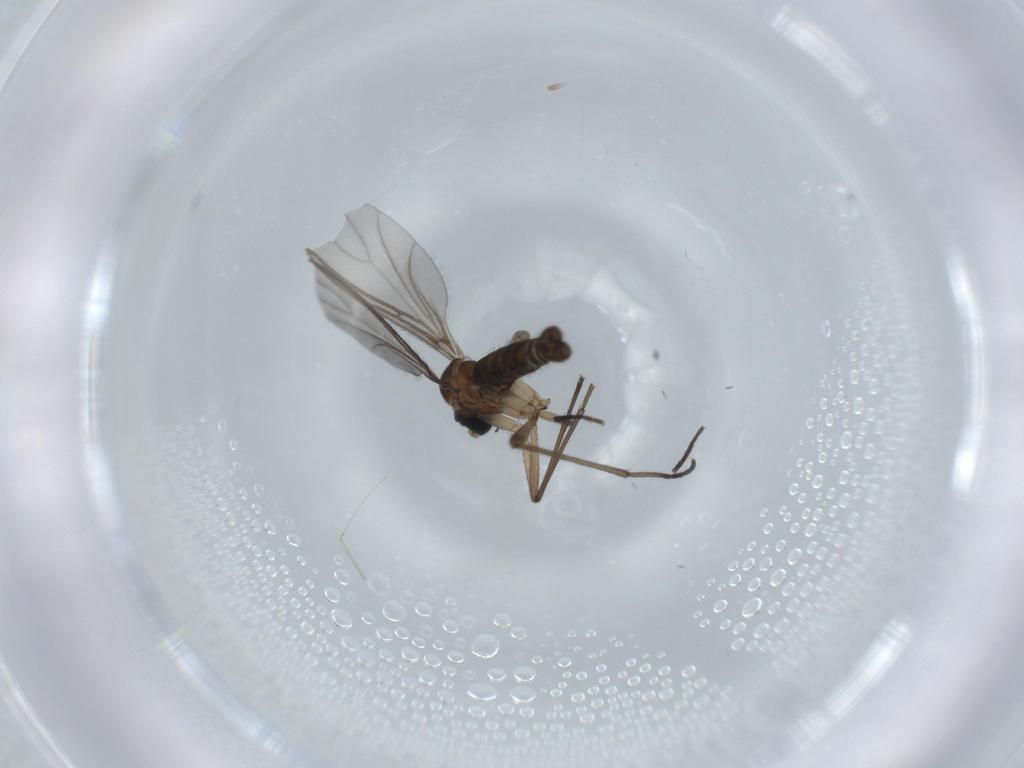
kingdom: Animalia
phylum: Arthropoda
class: Insecta
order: Diptera
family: Sciaridae
